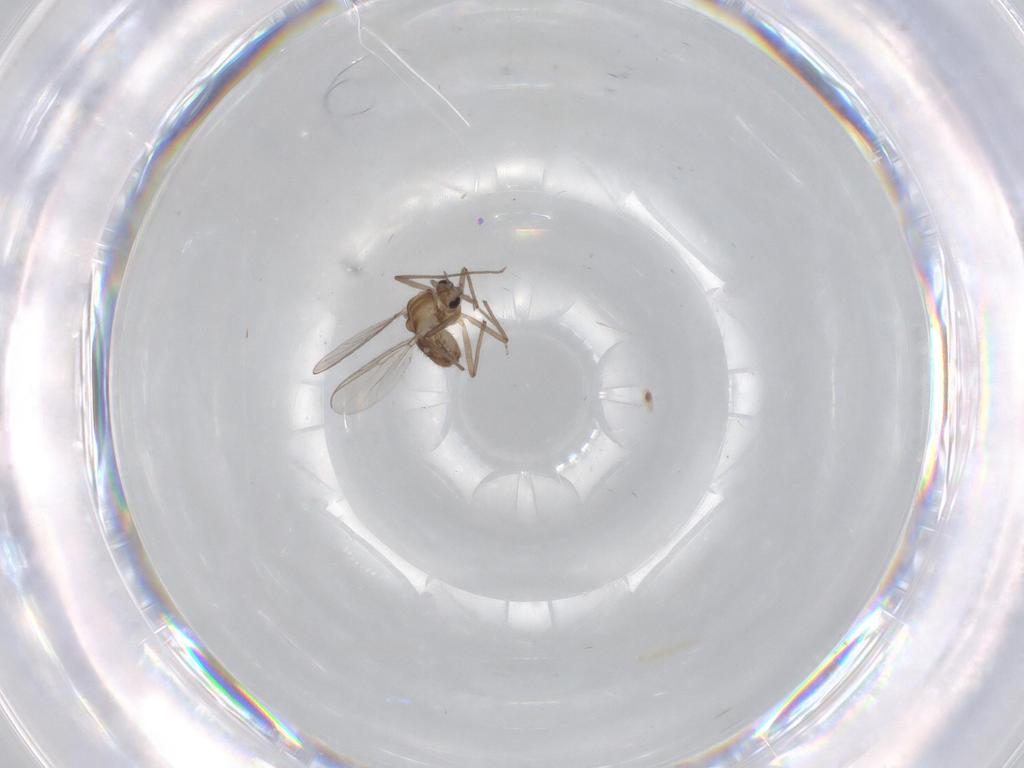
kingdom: Animalia
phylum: Arthropoda
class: Insecta
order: Diptera
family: Chironomidae
